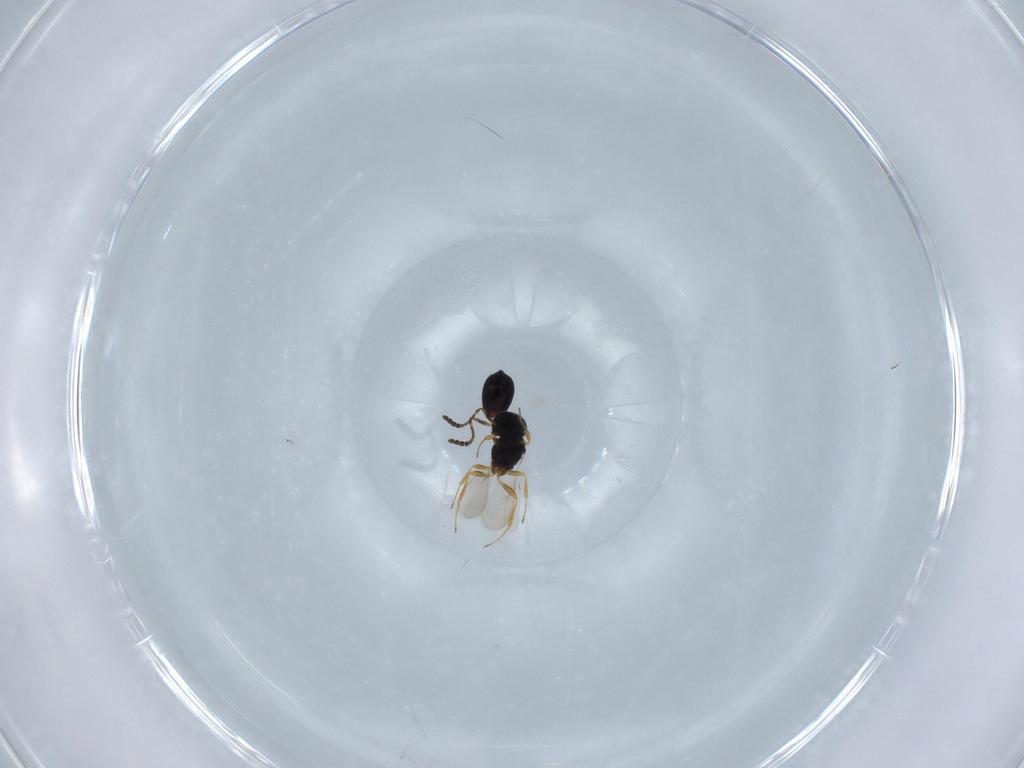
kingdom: Animalia
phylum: Arthropoda
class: Insecta
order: Hymenoptera
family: Scelionidae
